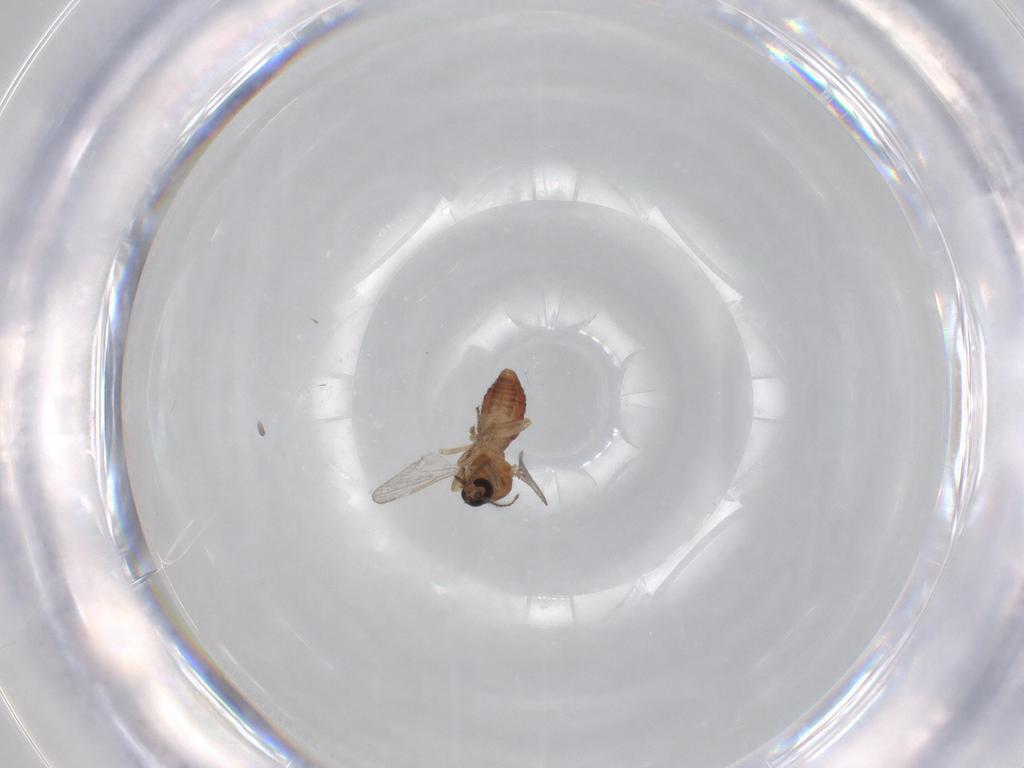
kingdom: Animalia
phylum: Arthropoda
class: Insecta
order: Diptera
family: Ceratopogonidae
